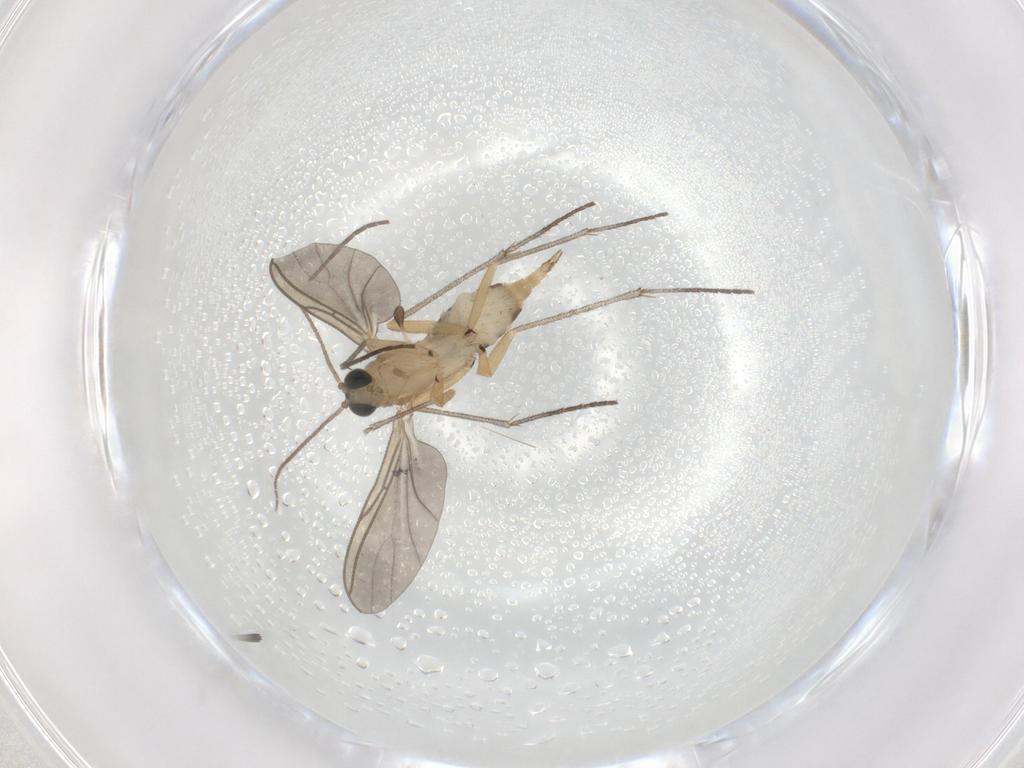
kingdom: Animalia
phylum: Arthropoda
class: Insecta
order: Diptera
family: Sciaridae
